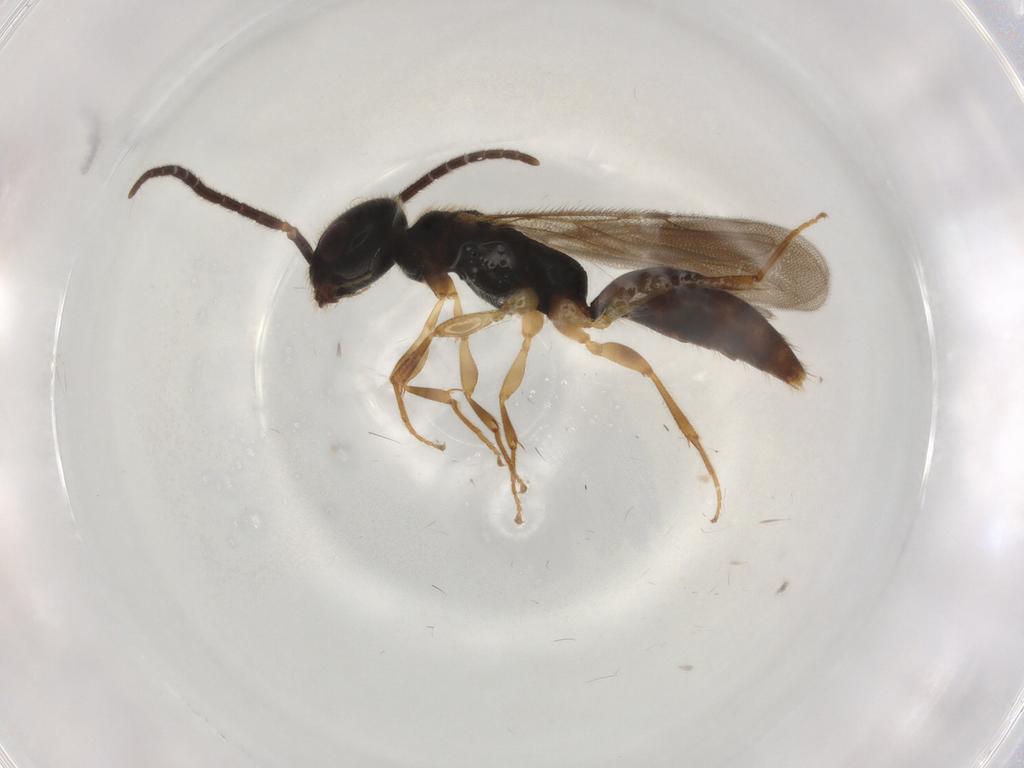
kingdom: Animalia
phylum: Arthropoda
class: Insecta
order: Hymenoptera
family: Bethylidae
